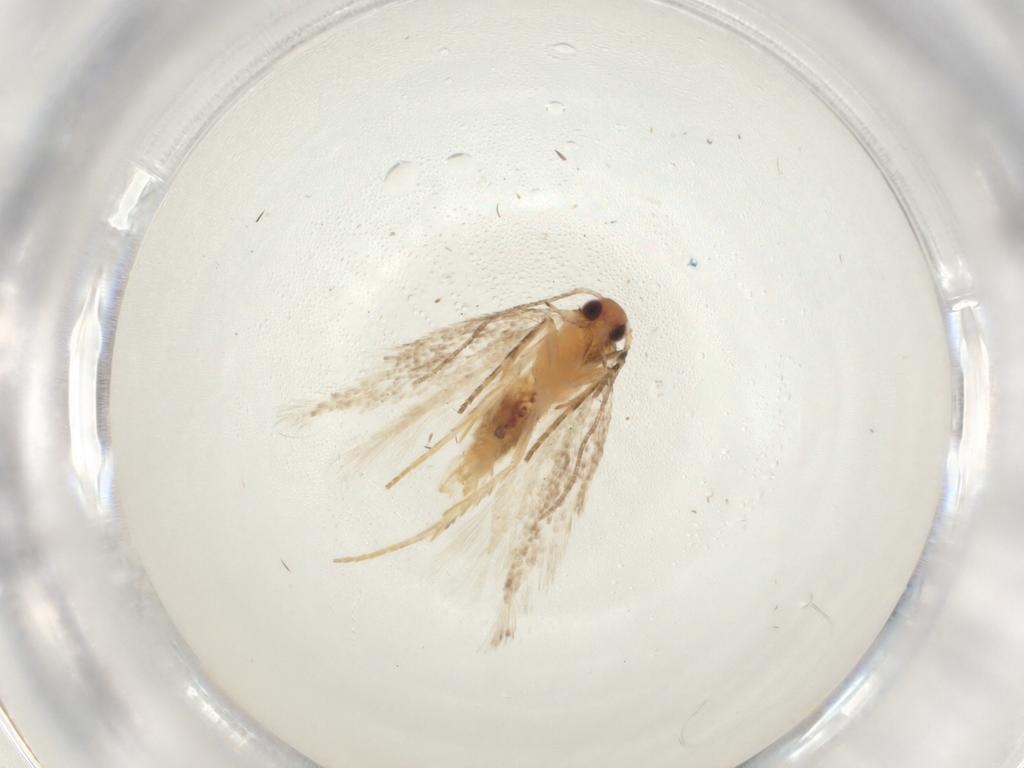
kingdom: Animalia
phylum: Arthropoda
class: Insecta
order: Lepidoptera
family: Gelechiidae
